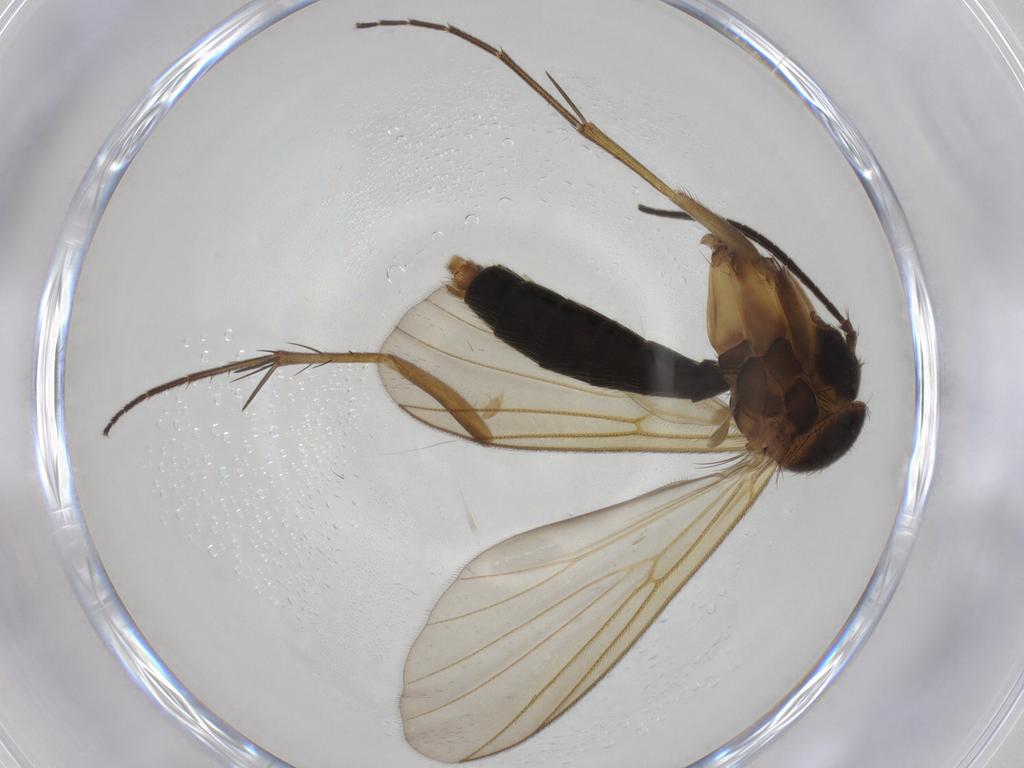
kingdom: Animalia
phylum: Arthropoda
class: Insecta
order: Diptera
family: Mycetophilidae
